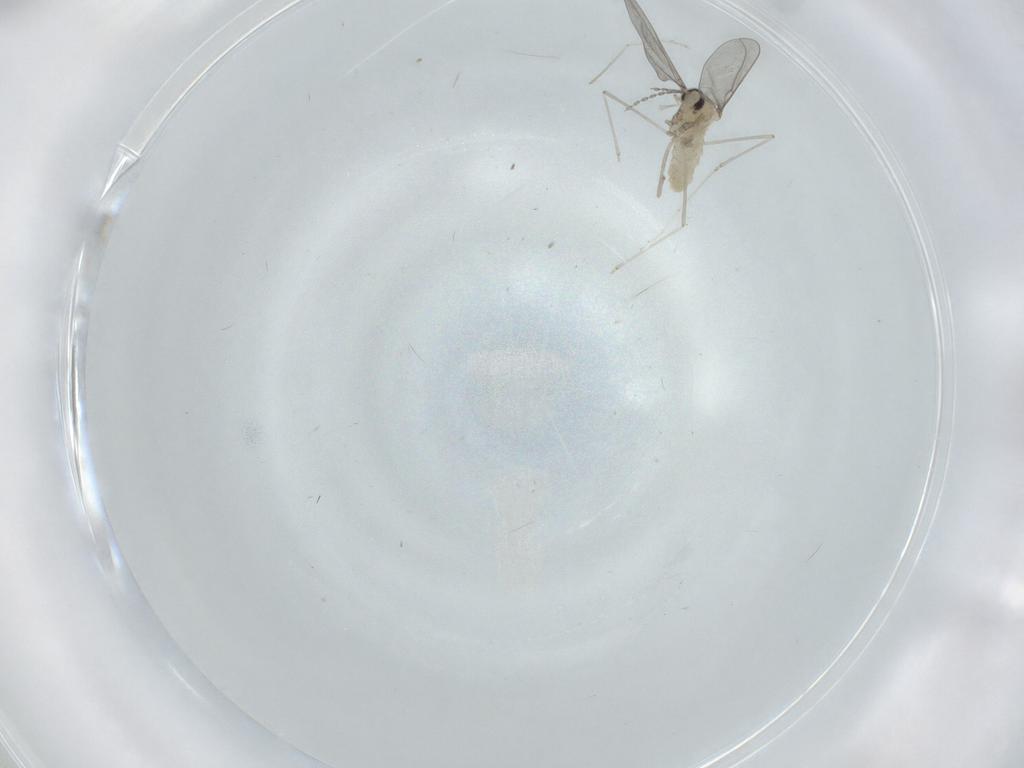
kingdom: Animalia
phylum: Arthropoda
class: Insecta
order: Diptera
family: Cecidomyiidae
